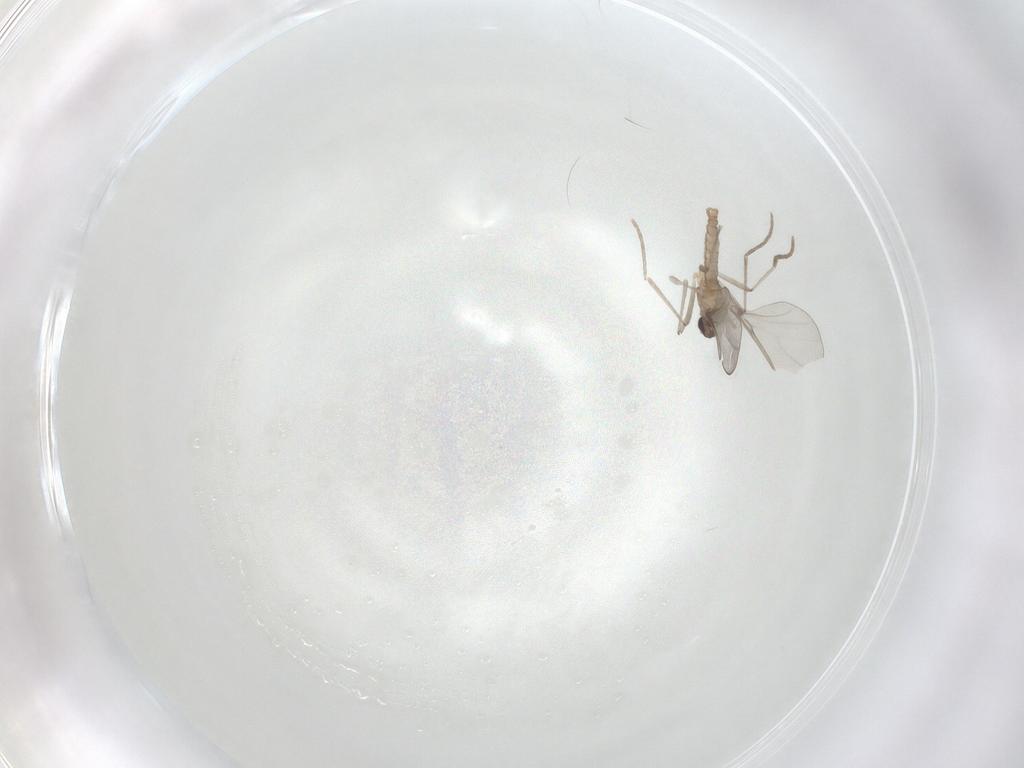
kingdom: Animalia
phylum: Arthropoda
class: Insecta
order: Diptera
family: Cecidomyiidae
